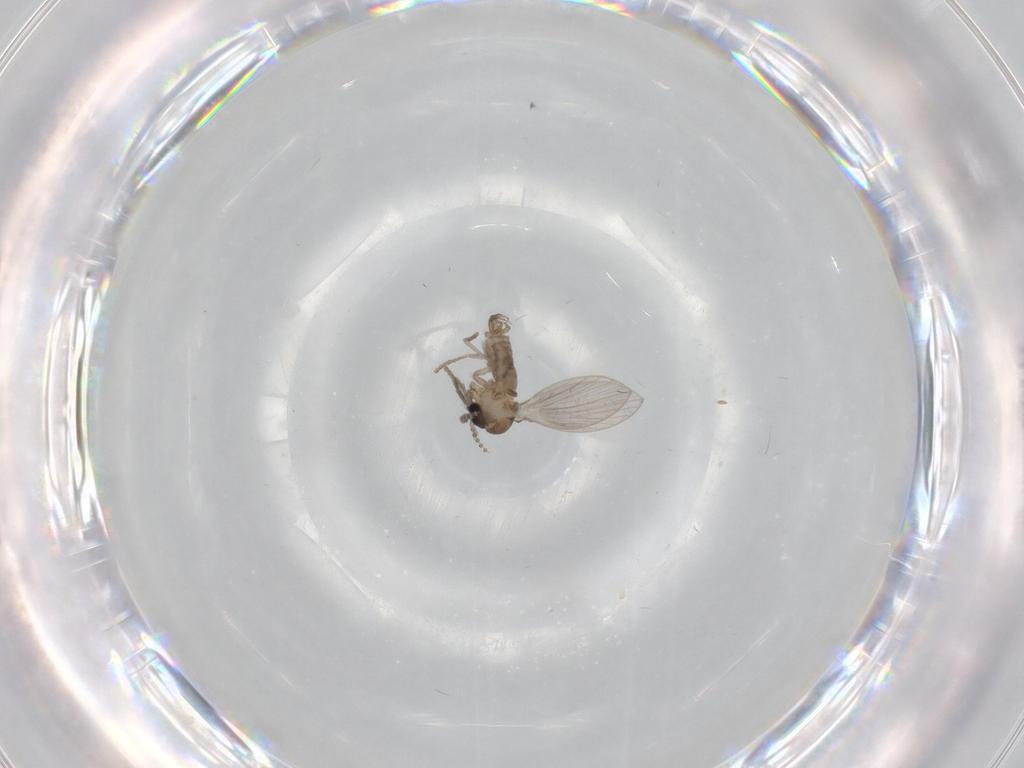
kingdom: Animalia
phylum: Arthropoda
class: Insecta
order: Diptera
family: Psychodidae
